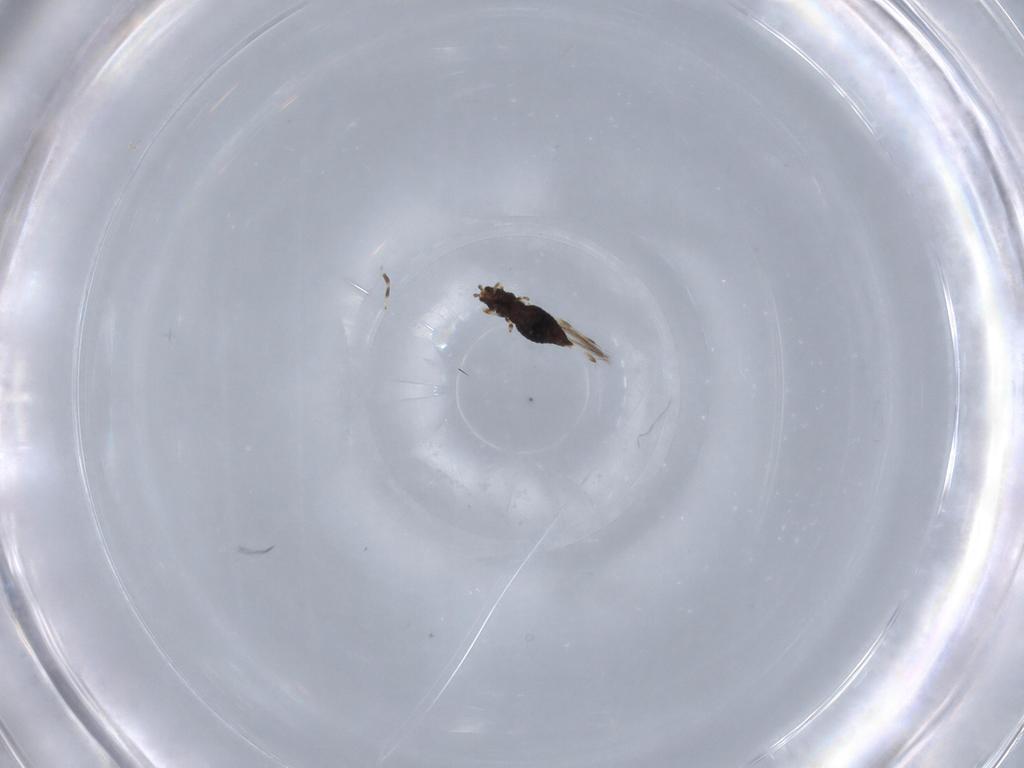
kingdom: Animalia
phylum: Arthropoda
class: Insecta
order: Thysanoptera
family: Thripidae
